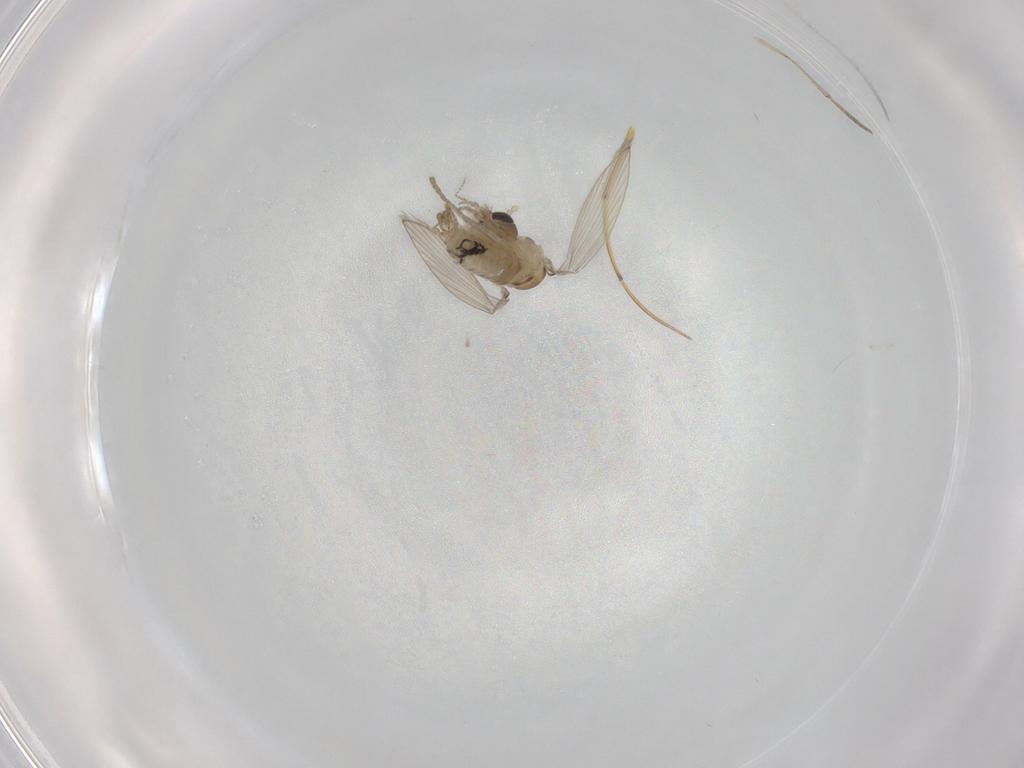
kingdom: Animalia
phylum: Arthropoda
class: Insecta
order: Diptera
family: Psychodidae
